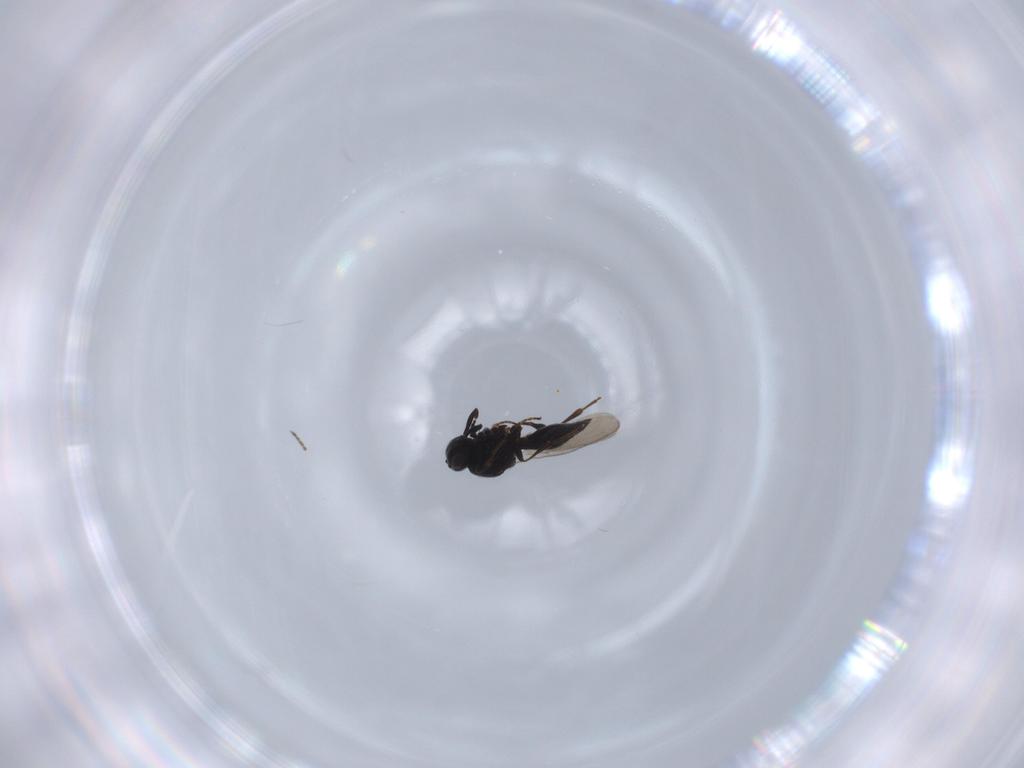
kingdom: Animalia
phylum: Arthropoda
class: Insecta
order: Hymenoptera
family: Platygastridae
